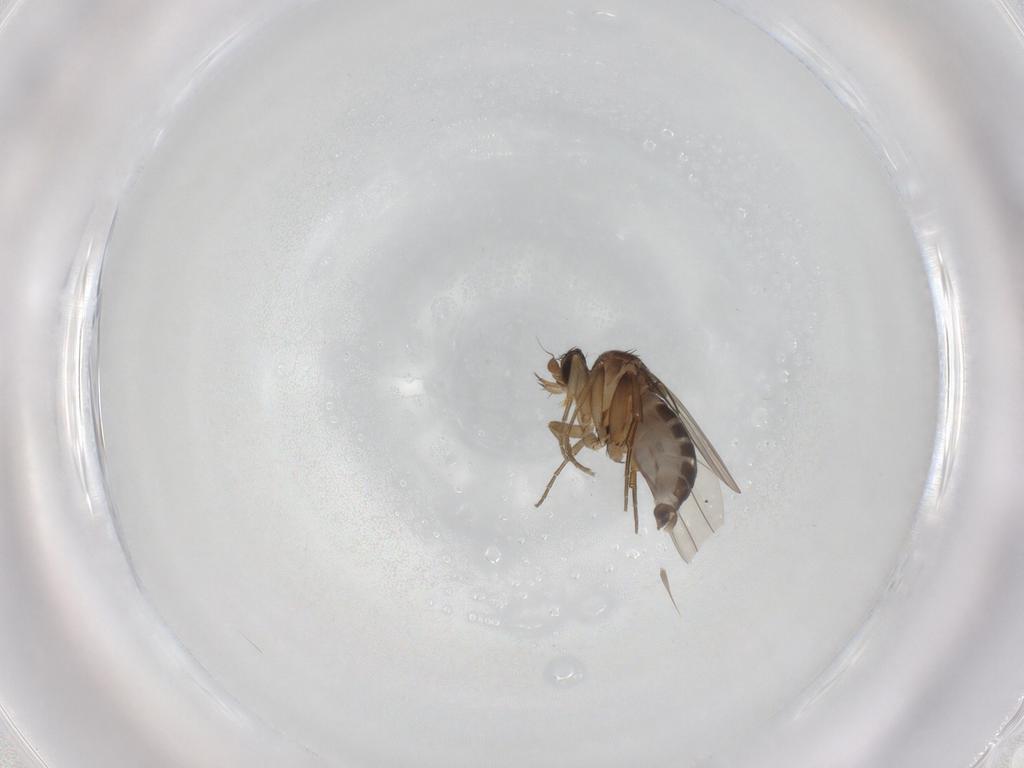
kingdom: Animalia
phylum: Arthropoda
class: Insecta
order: Diptera
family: Phoridae
